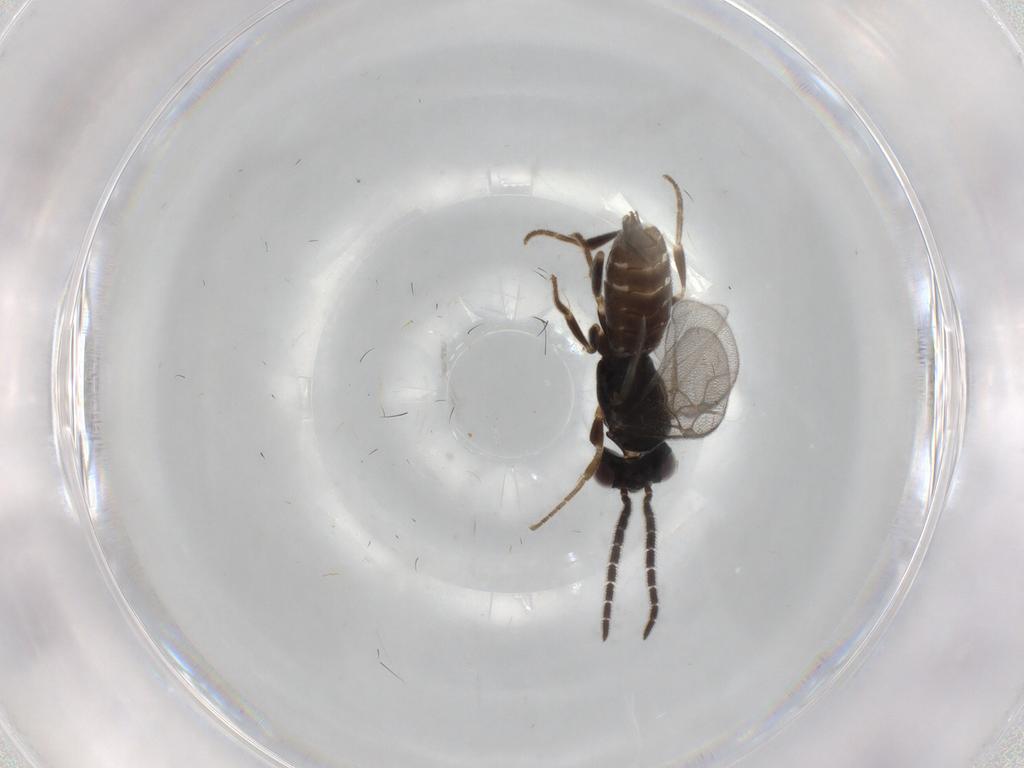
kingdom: Animalia
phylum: Arthropoda
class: Insecta
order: Hymenoptera
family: Dryinidae
